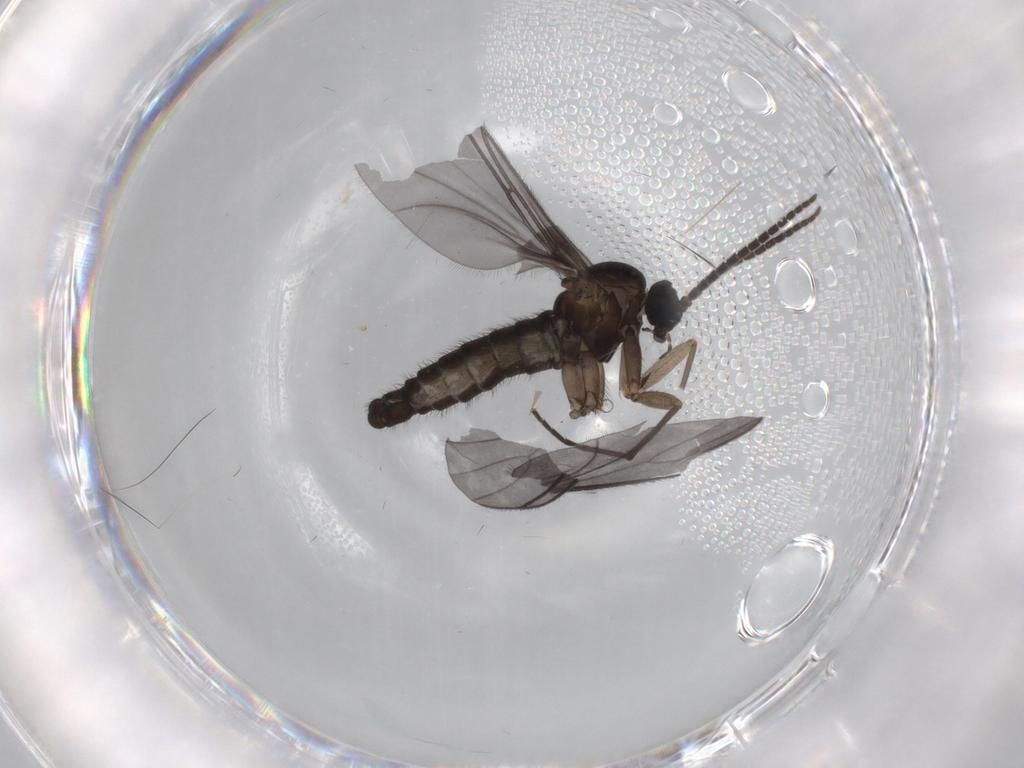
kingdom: Animalia
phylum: Arthropoda
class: Insecta
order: Diptera
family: Sciaridae
